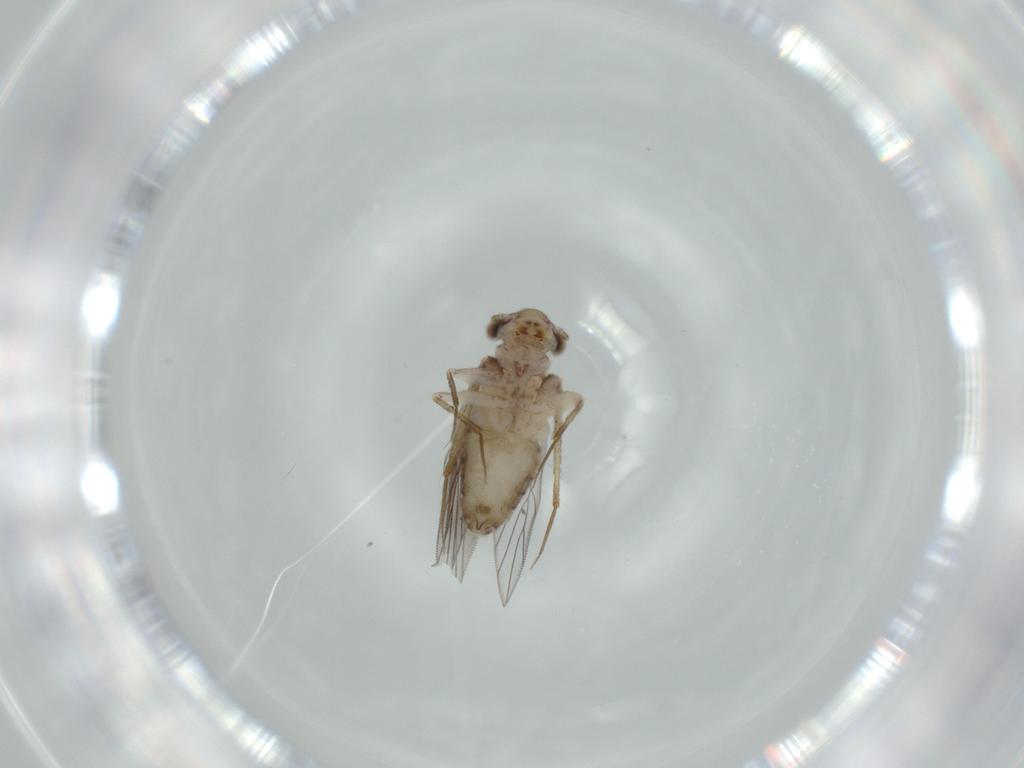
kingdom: Animalia
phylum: Arthropoda
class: Insecta
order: Psocodea
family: Lepidopsocidae
